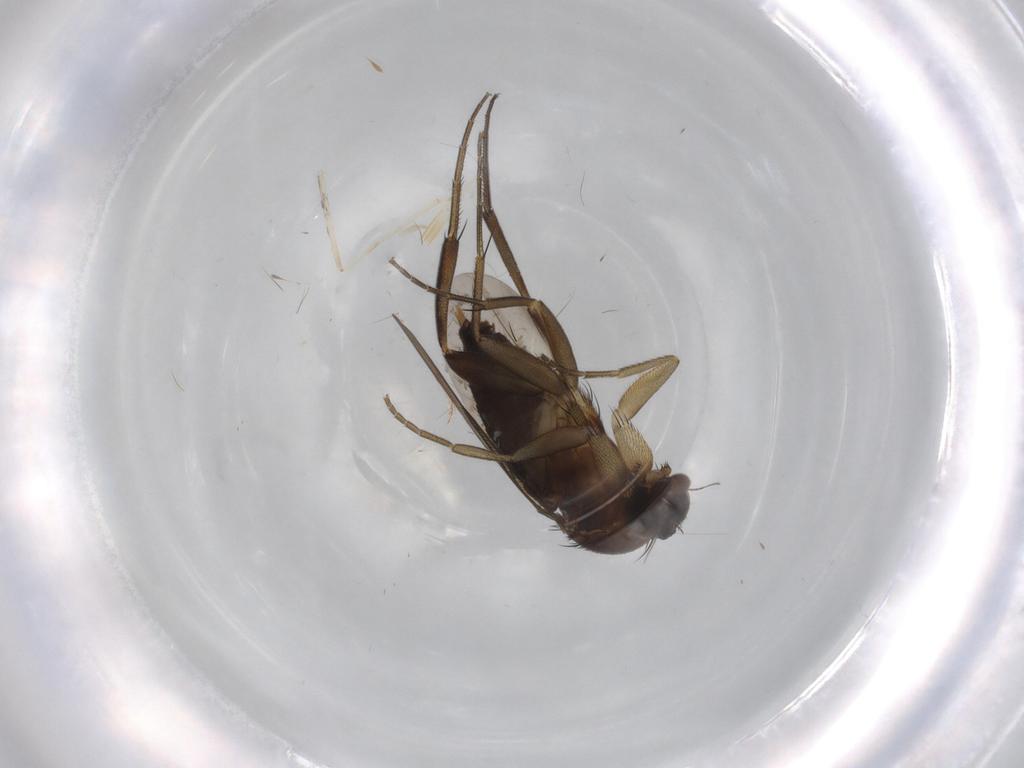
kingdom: Animalia
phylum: Arthropoda
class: Insecta
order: Diptera
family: Phoridae
